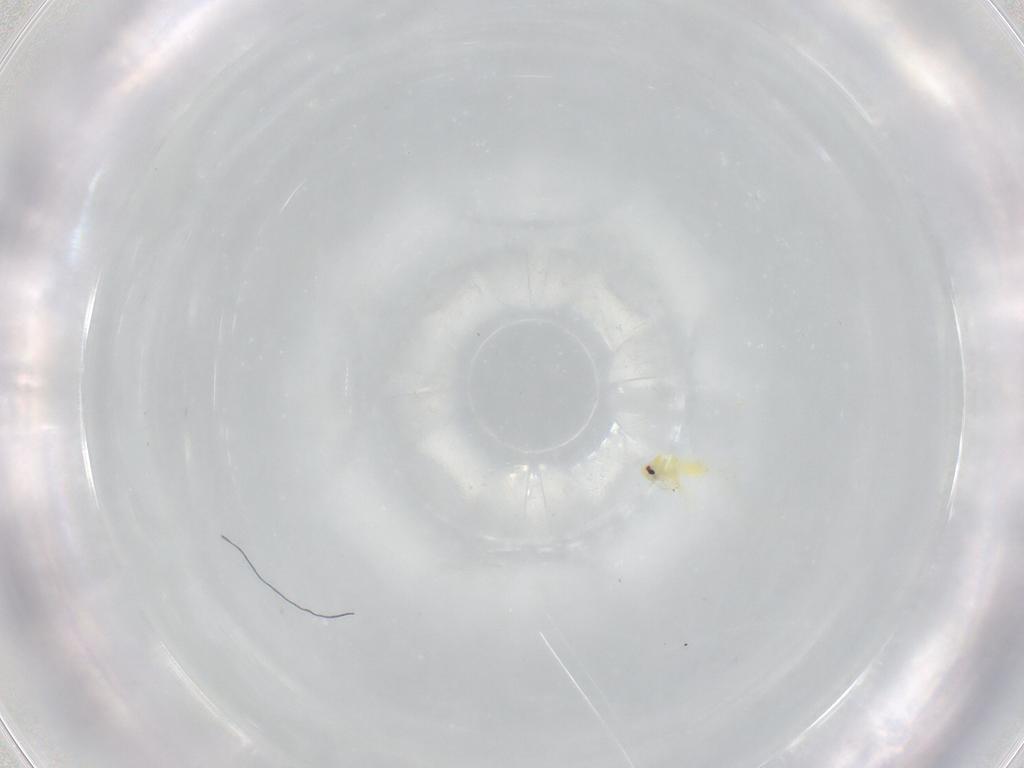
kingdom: Animalia
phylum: Arthropoda
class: Insecta
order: Hemiptera
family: Aleyrodidae
